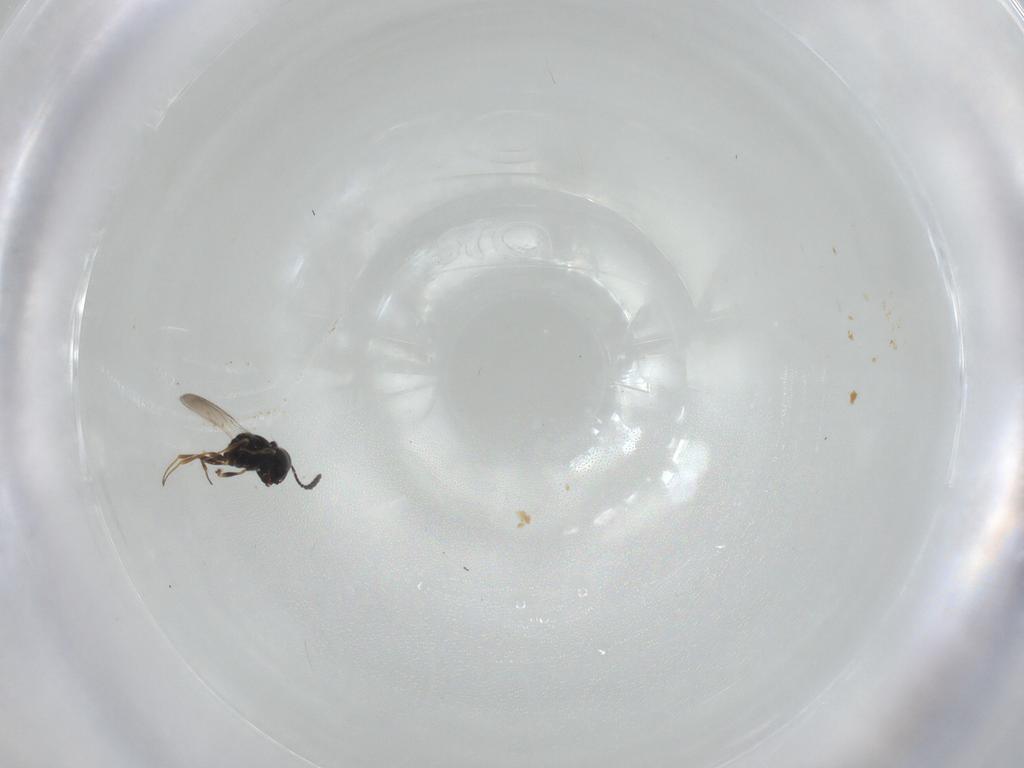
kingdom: Animalia
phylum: Arthropoda
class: Insecta
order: Hymenoptera
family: Scelionidae
